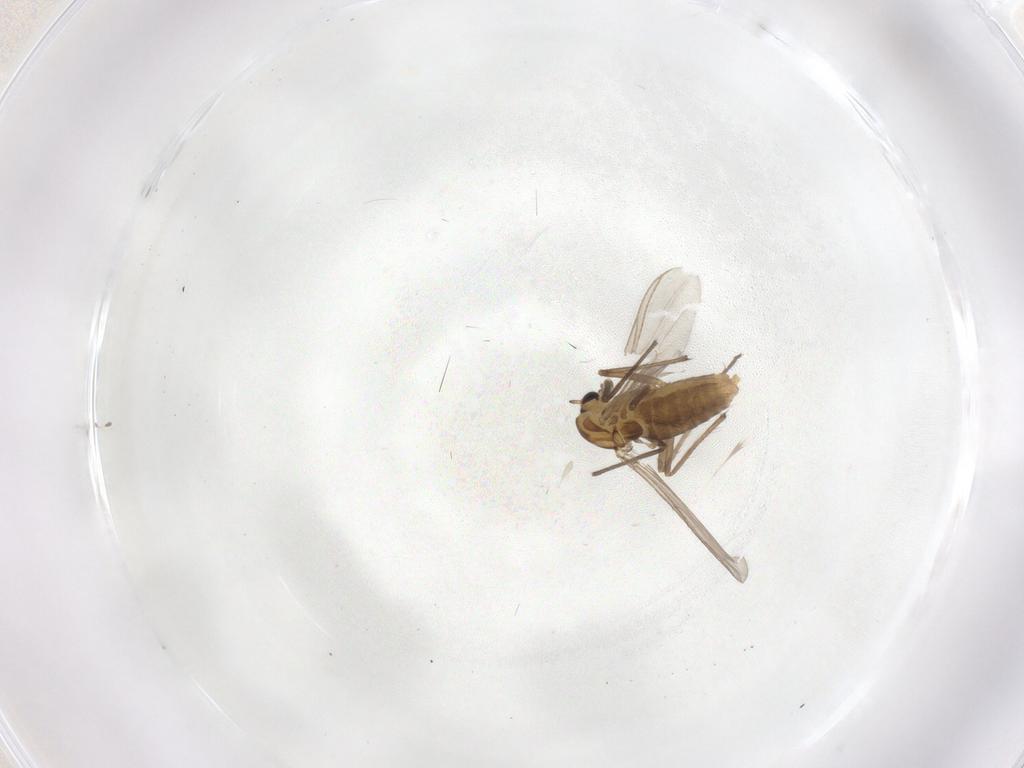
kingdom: Animalia
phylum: Arthropoda
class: Insecta
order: Diptera
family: Chironomidae
